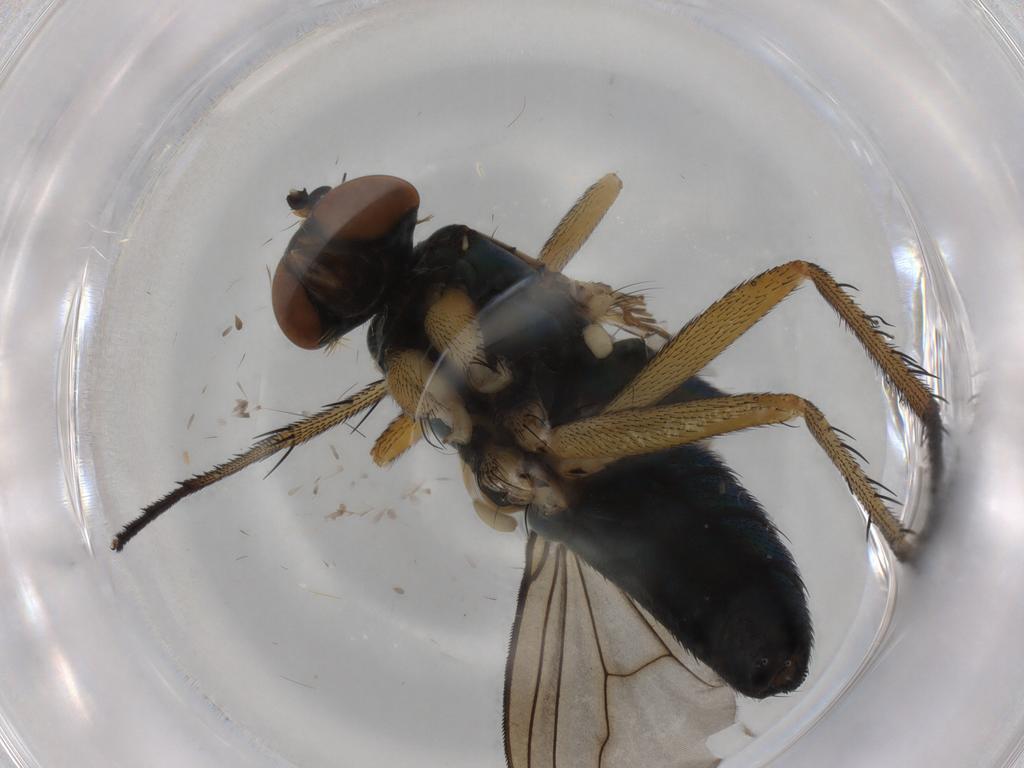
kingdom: Animalia
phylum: Arthropoda
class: Insecta
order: Diptera
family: Dolichopodidae
